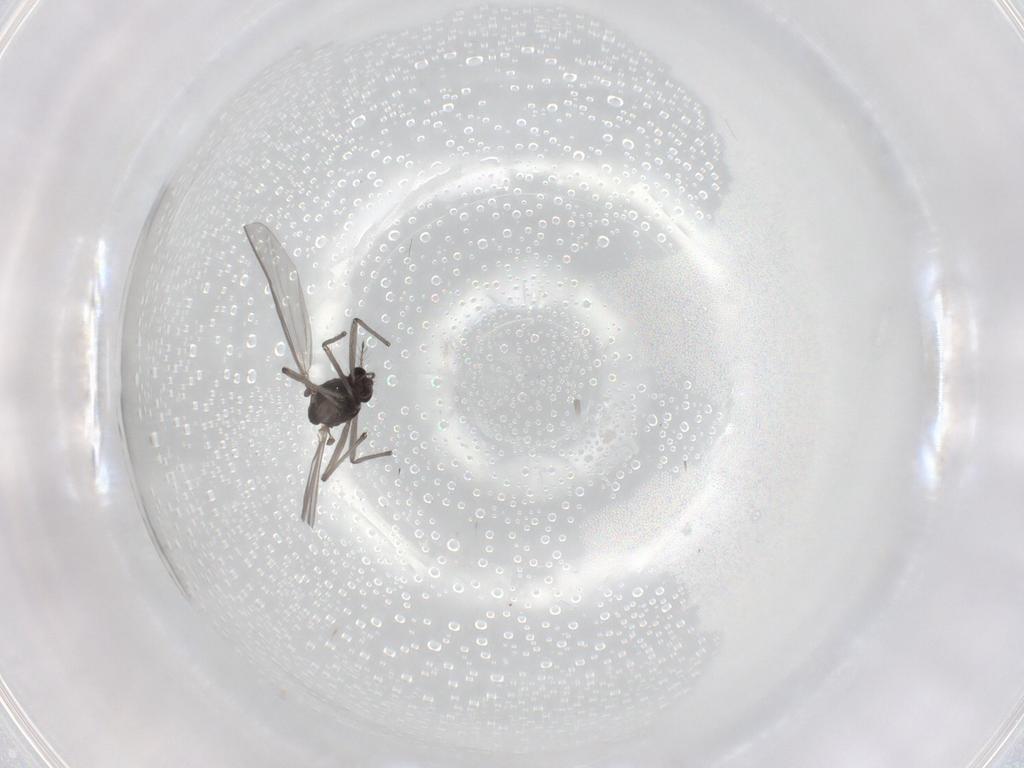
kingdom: Animalia
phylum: Arthropoda
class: Insecta
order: Diptera
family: Chironomidae
